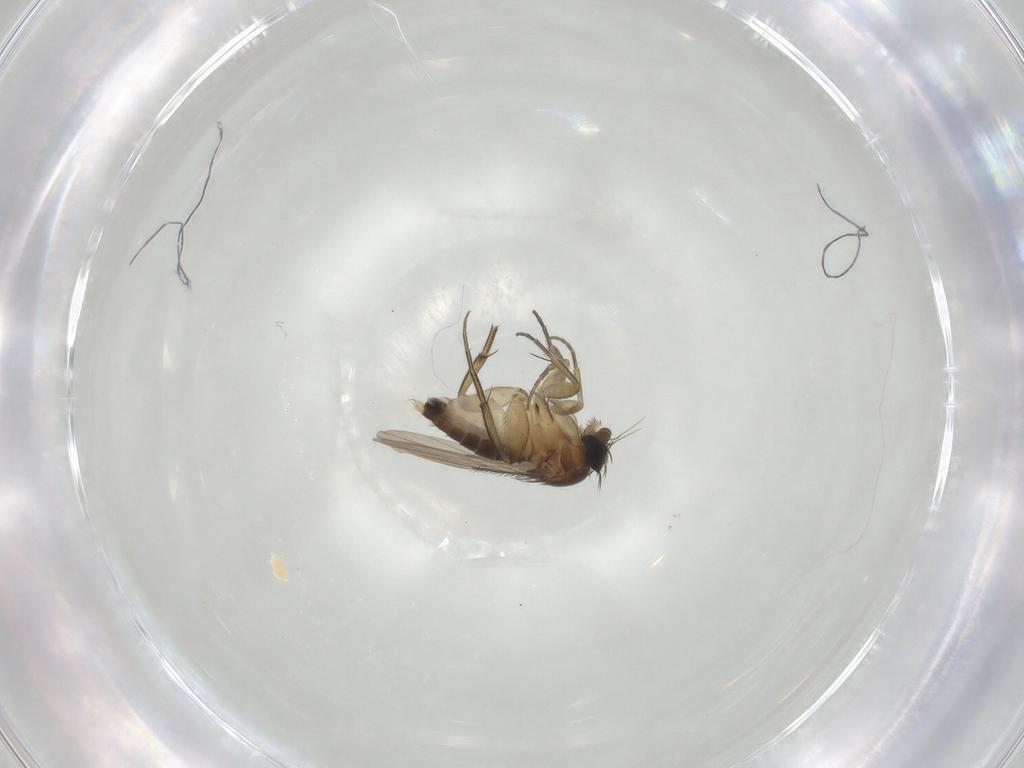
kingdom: Animalia
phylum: Arthropoda
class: Insecta
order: Diptera
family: Phoridae
